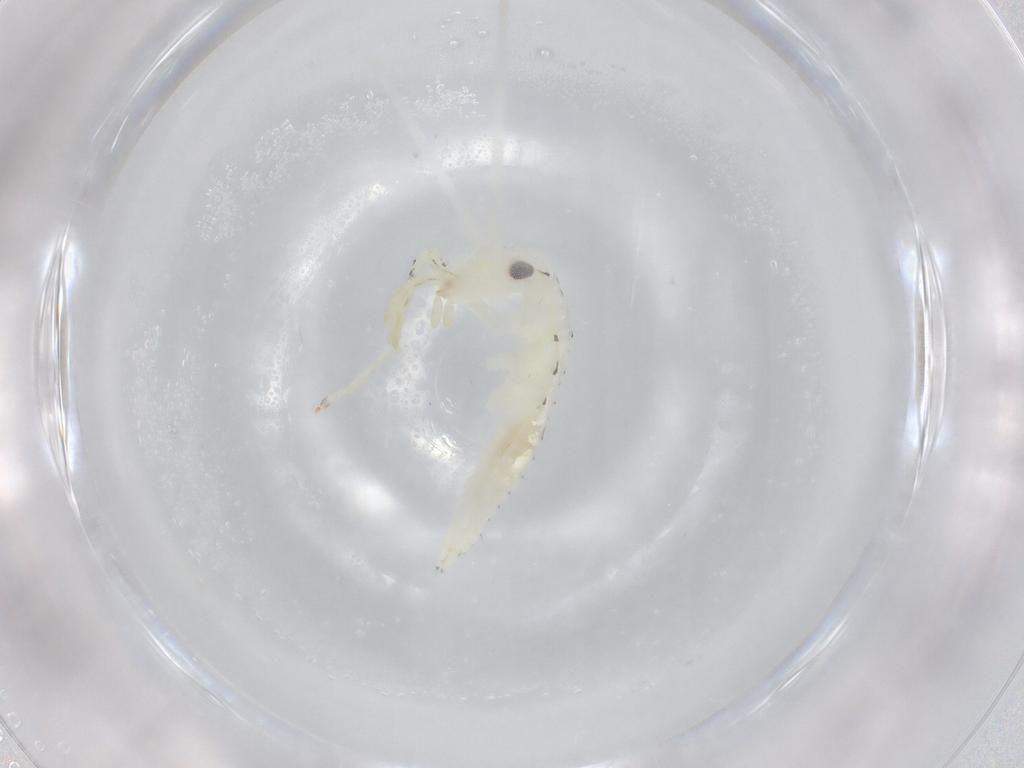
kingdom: Animalia
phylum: Arthropoda
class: Insecta
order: Orthoptera
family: Oecanthidae
